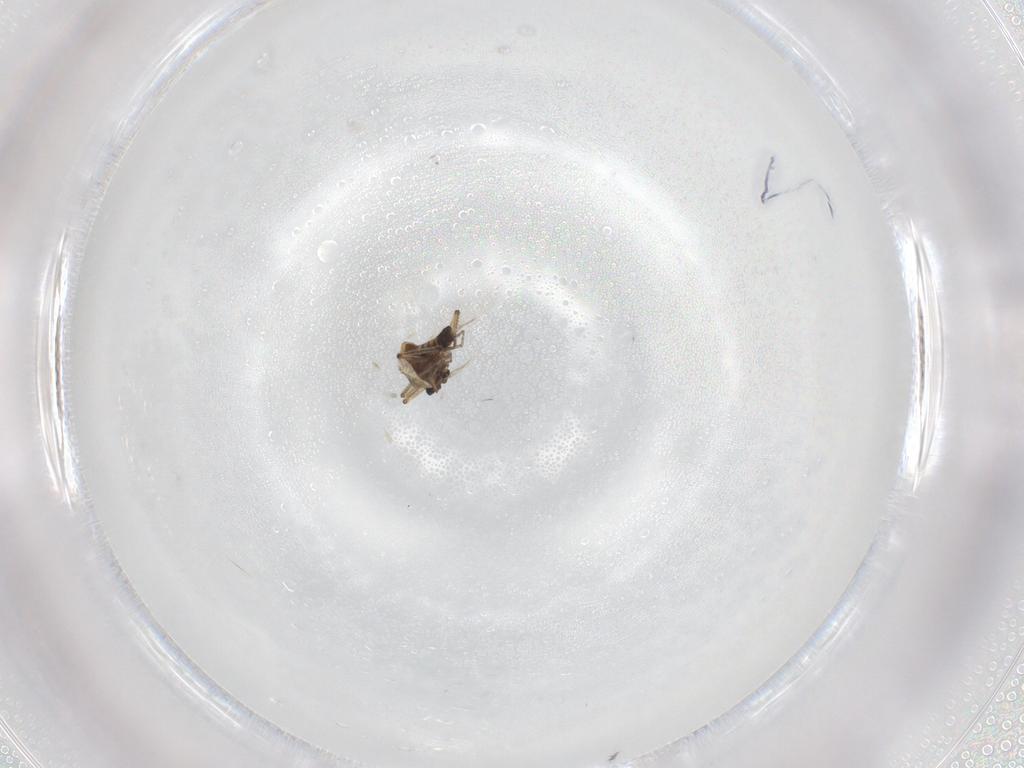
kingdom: Animalia
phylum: Arthropoda
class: Insecta
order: Diptera
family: Ceratopogonidae
